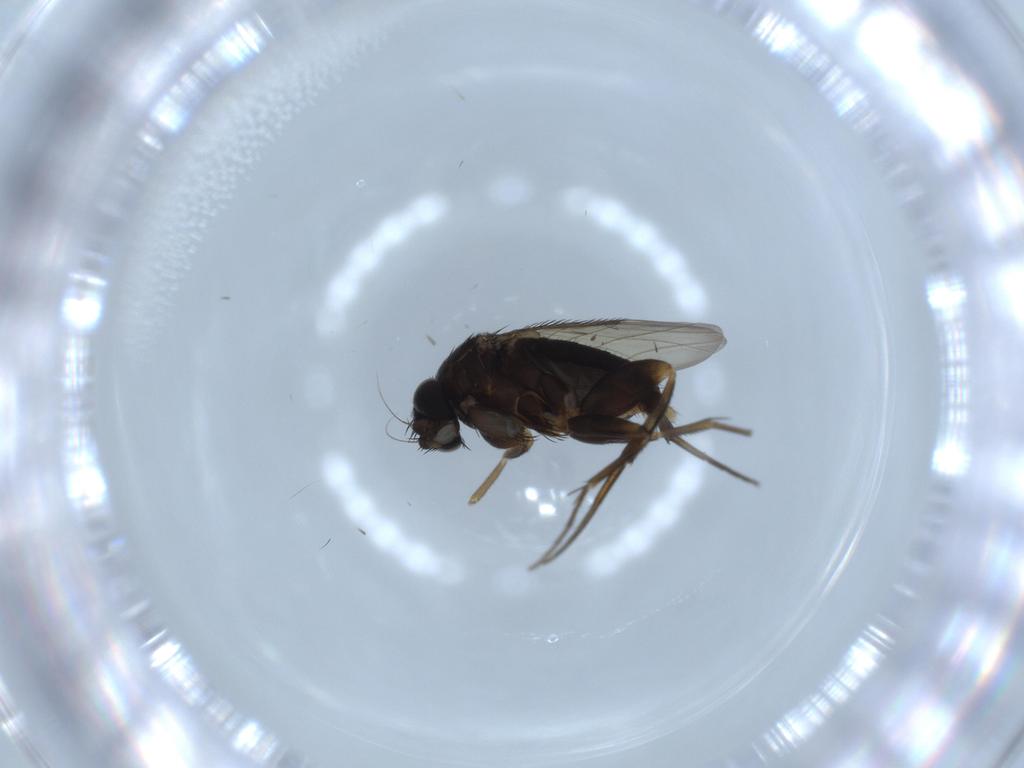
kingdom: Animalia
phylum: Arthropoda
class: Insecta
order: Diptera
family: Phoridae
